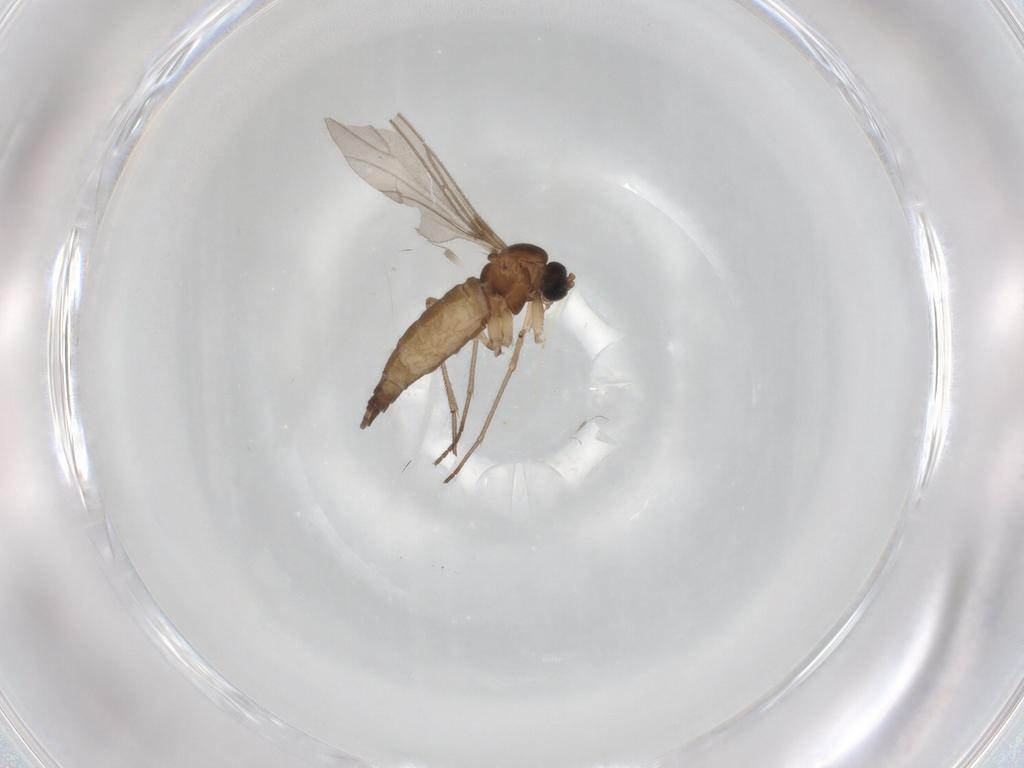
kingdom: Animalia
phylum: Arthropoda
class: Insecta
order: Diptera
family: Sciaridae
